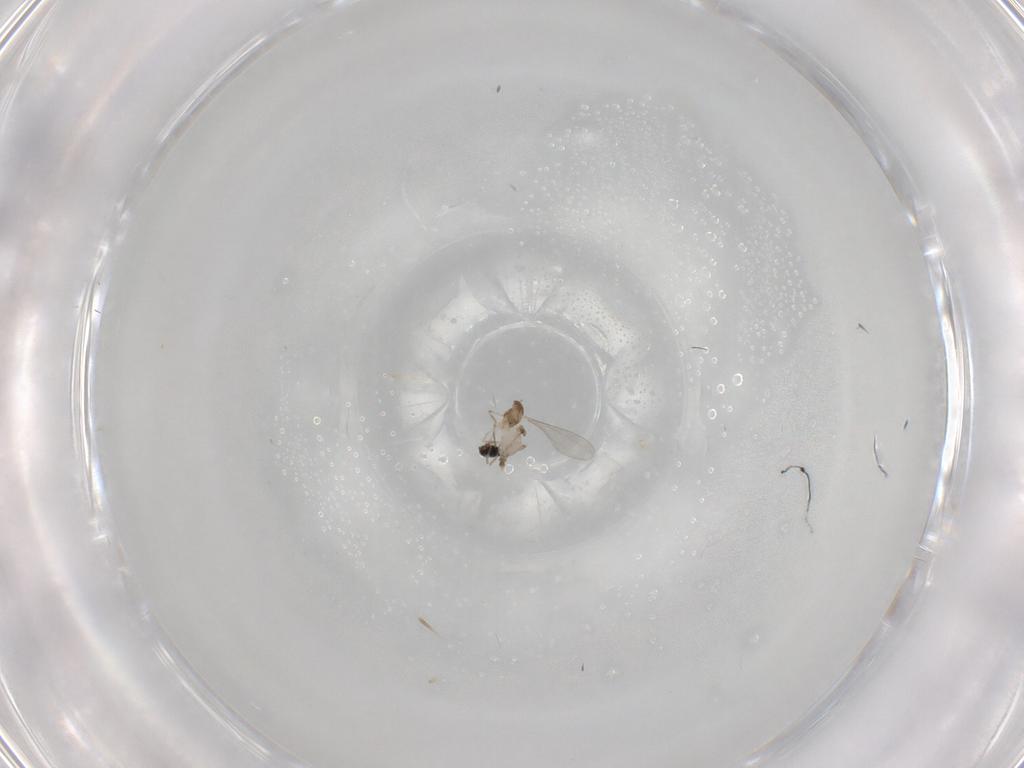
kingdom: Animalia
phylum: Arthropoda
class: Insecta
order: Diptera
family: Cecidomyiidae
